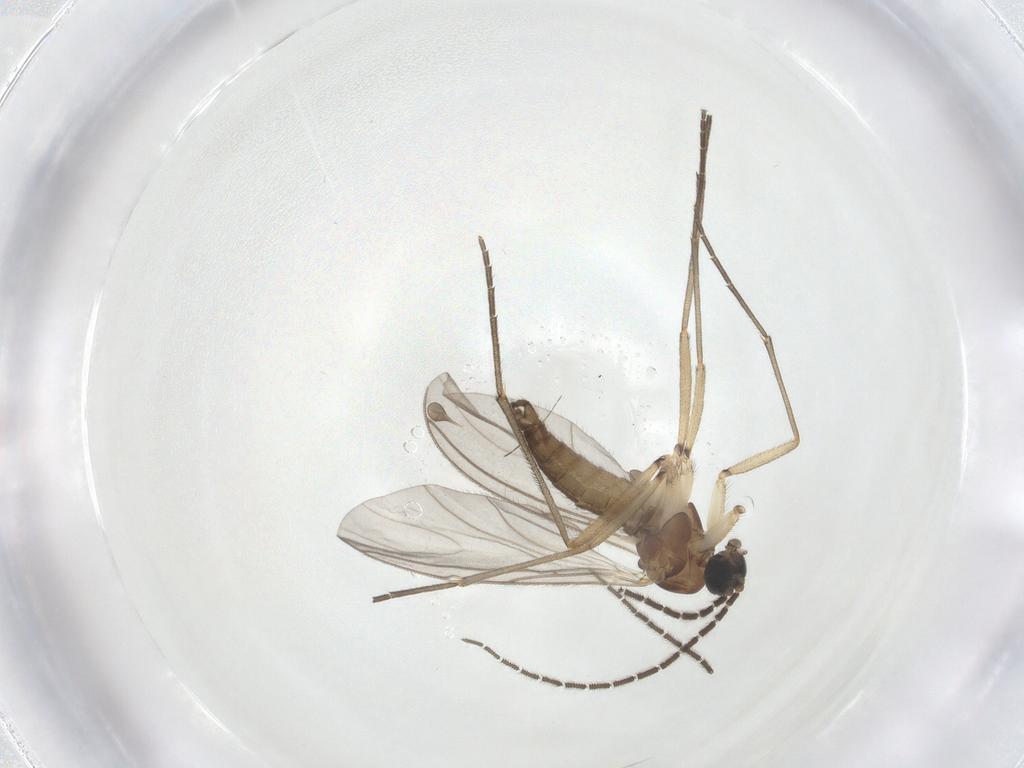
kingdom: Animalia
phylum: Arthropoda
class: Insecta
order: Diptera
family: Sciaridae
